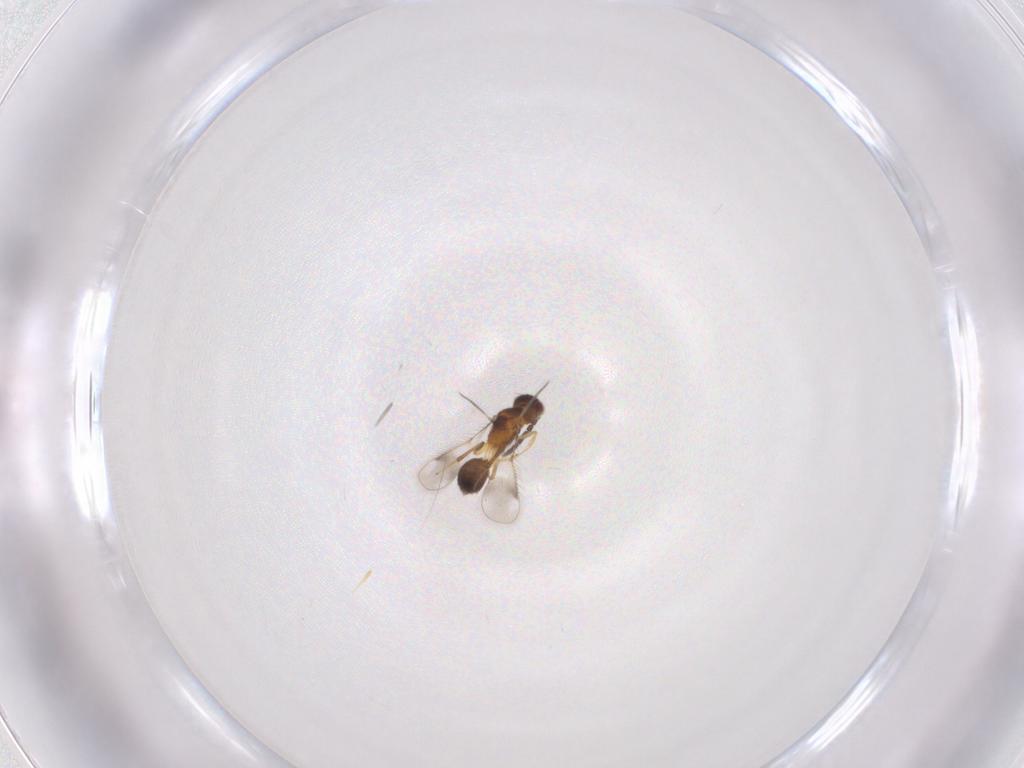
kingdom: Animalia
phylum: Arthropoda
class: Insecta
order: Hymenoptera
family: Pteromalidae
